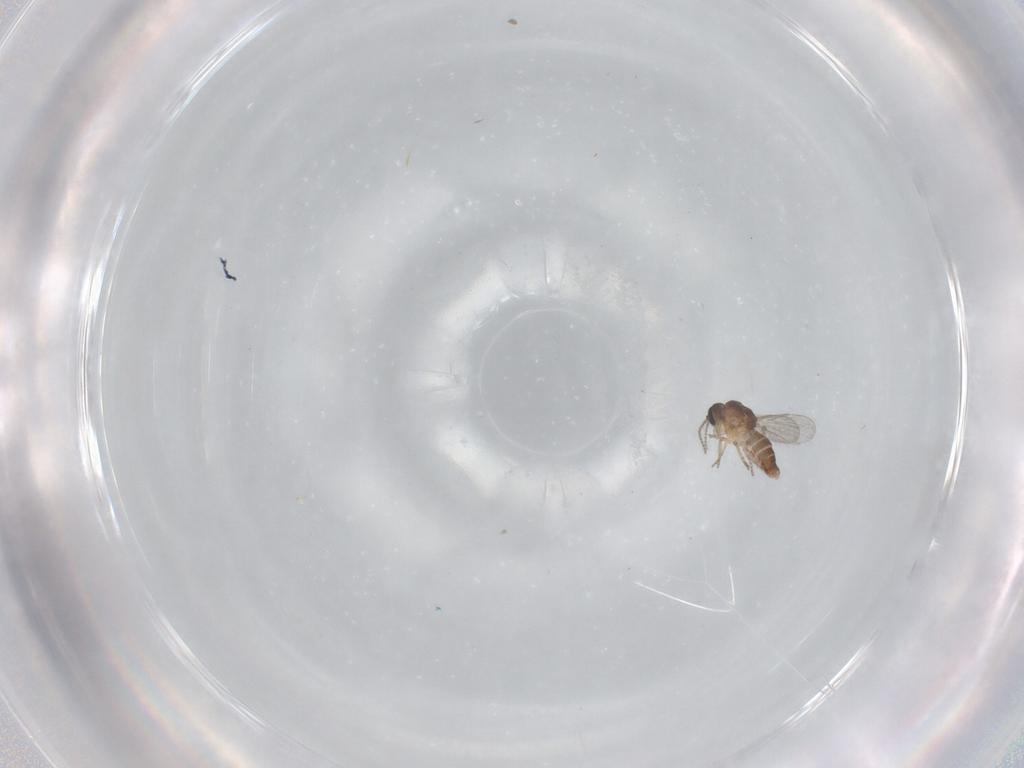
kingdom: Animalia
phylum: Arthropoda
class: Insecta
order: Diptera
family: Ceratopogonidae
